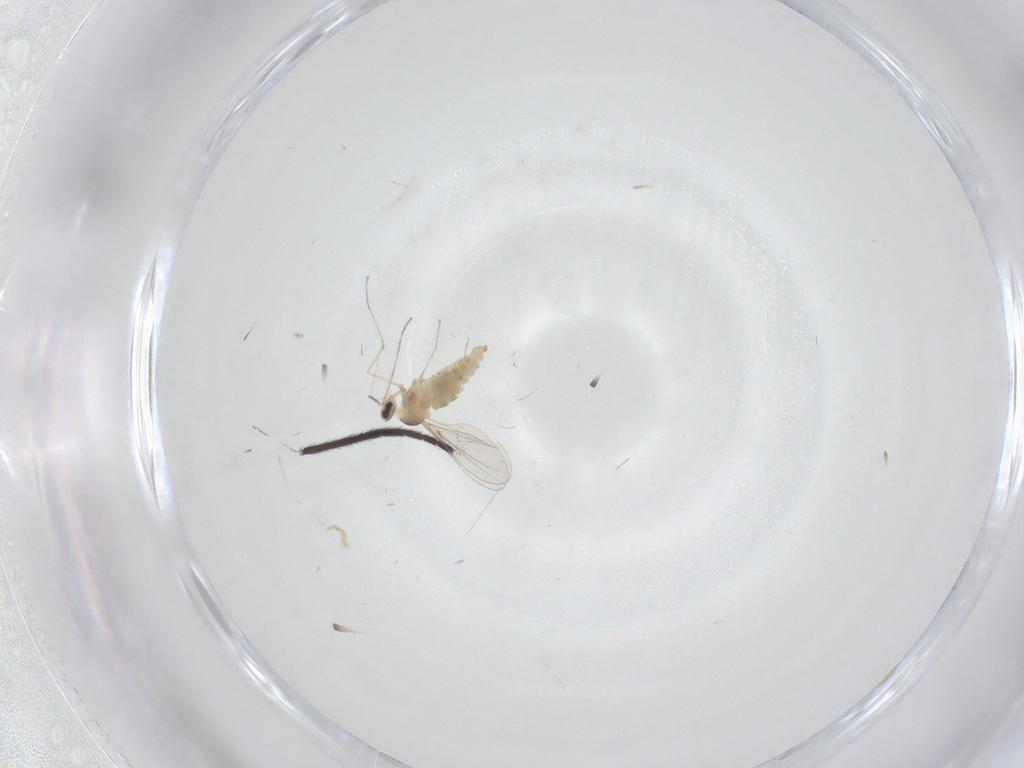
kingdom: Animalia
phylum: Arthropoda
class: Insecta
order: Diptera
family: Cecidomyiidae
